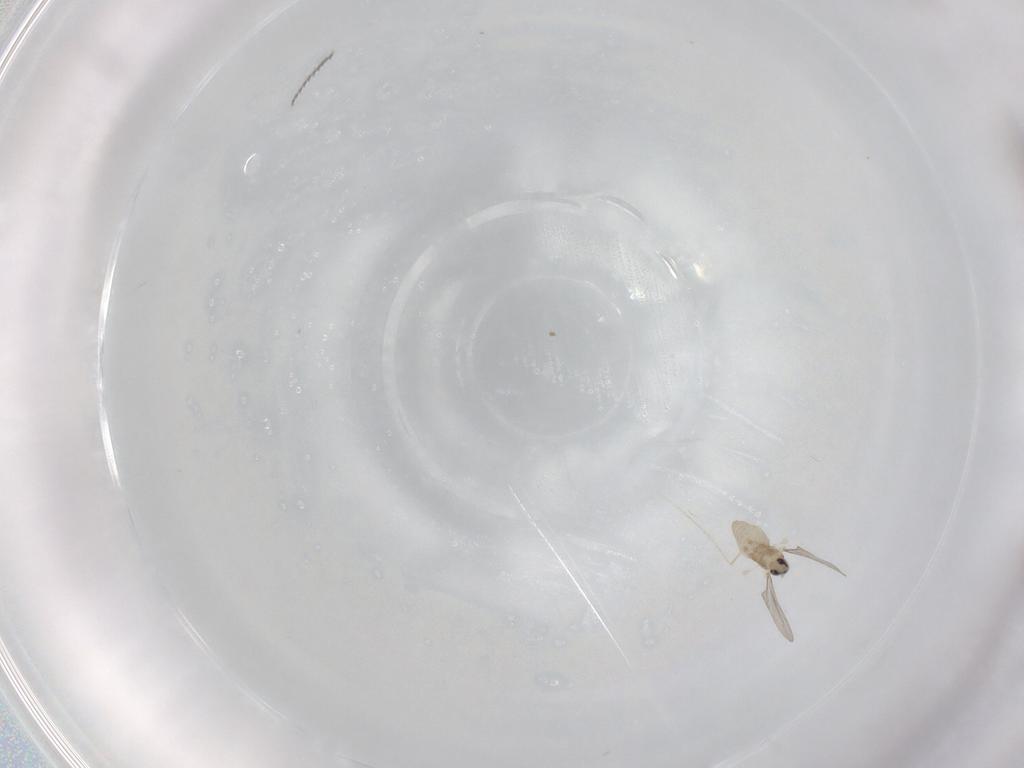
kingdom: Animalia
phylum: Arthropoda
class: Insecta
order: Diptera
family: Cecidomyiidae
